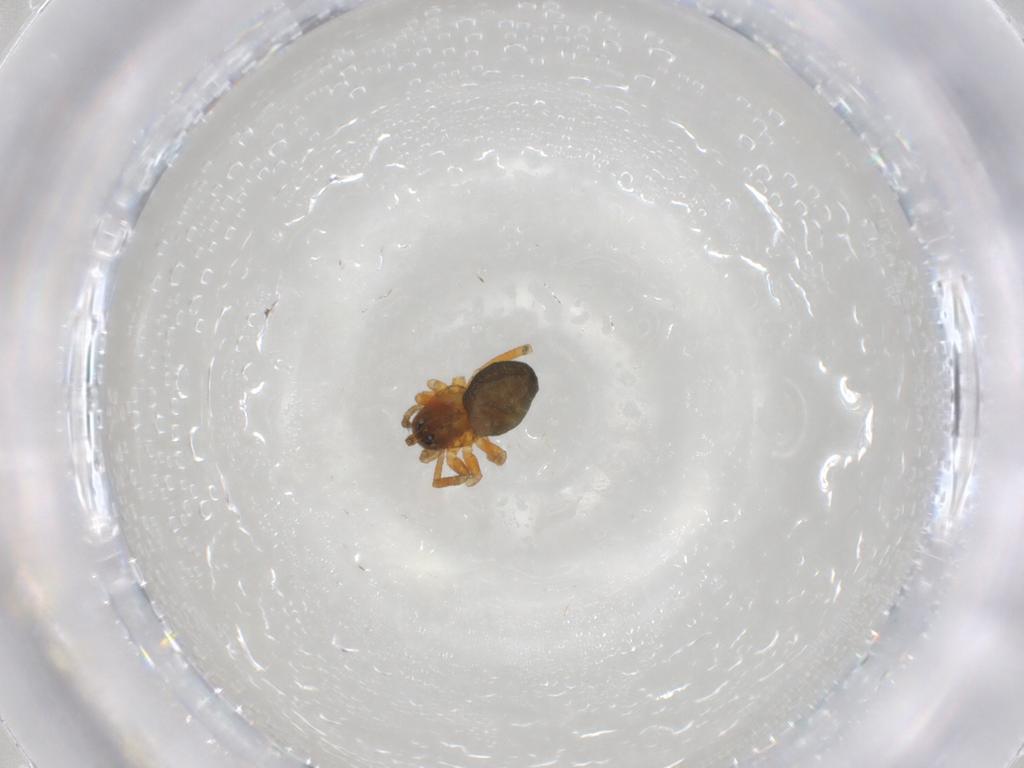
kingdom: Animalia
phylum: Arthropoda
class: Arachnida
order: Araneae
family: Linyphiidae
